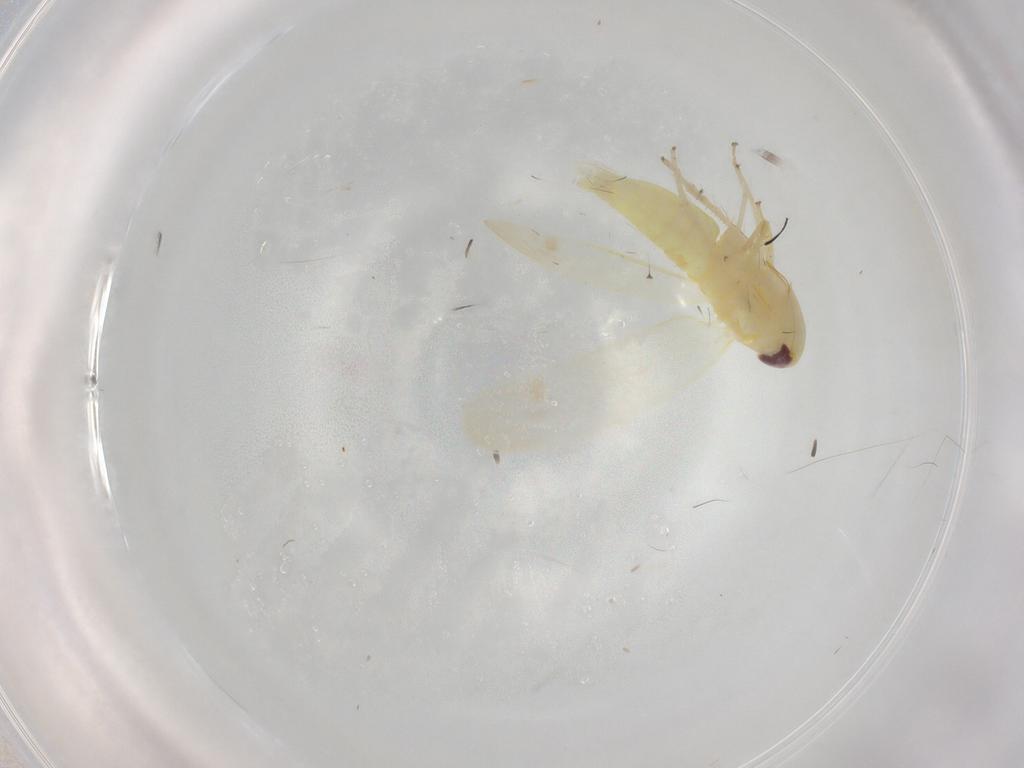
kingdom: Animalia
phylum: Arthropoda
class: Insecta
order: Hemiptera
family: Cicadellidae
